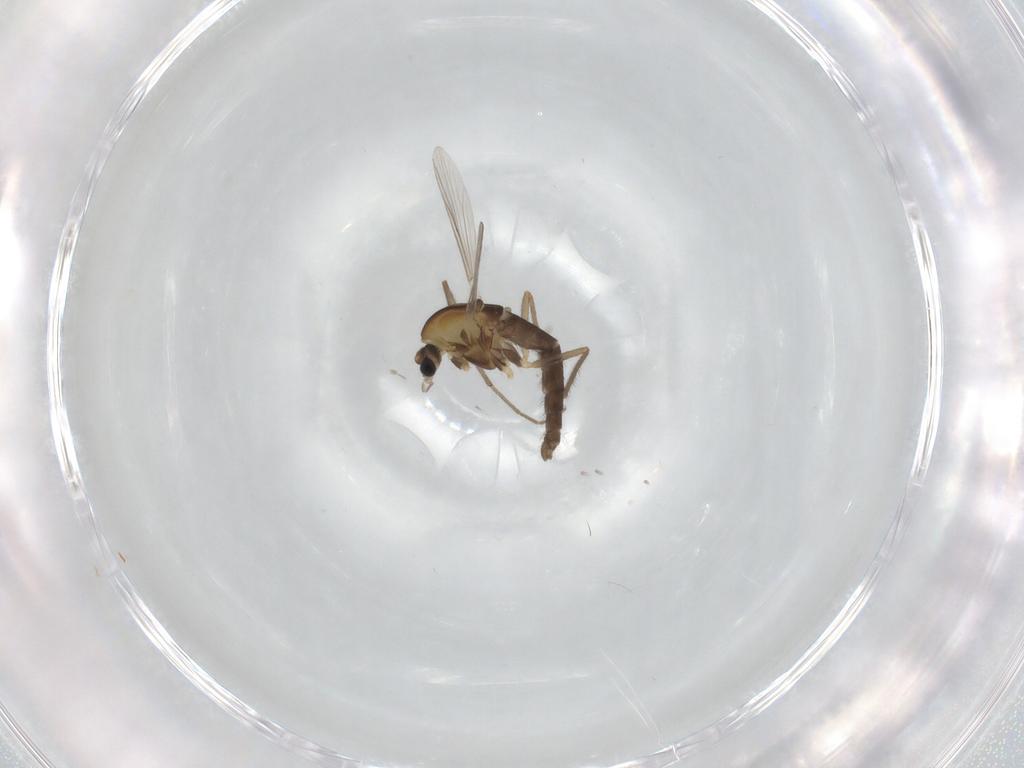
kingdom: Animalia
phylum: Arthropoda
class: Insecta
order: Diptera
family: Chironomidae
